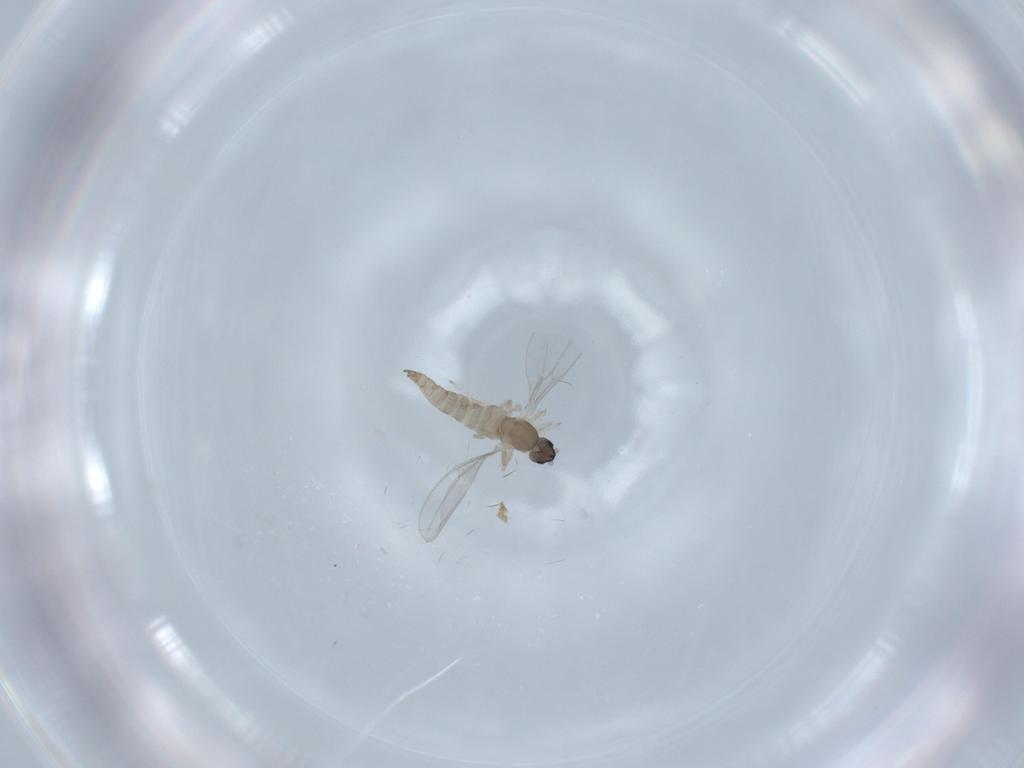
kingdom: Animalia
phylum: Arthropoda
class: Insecta
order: Diptera
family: Cecidomyiidae
